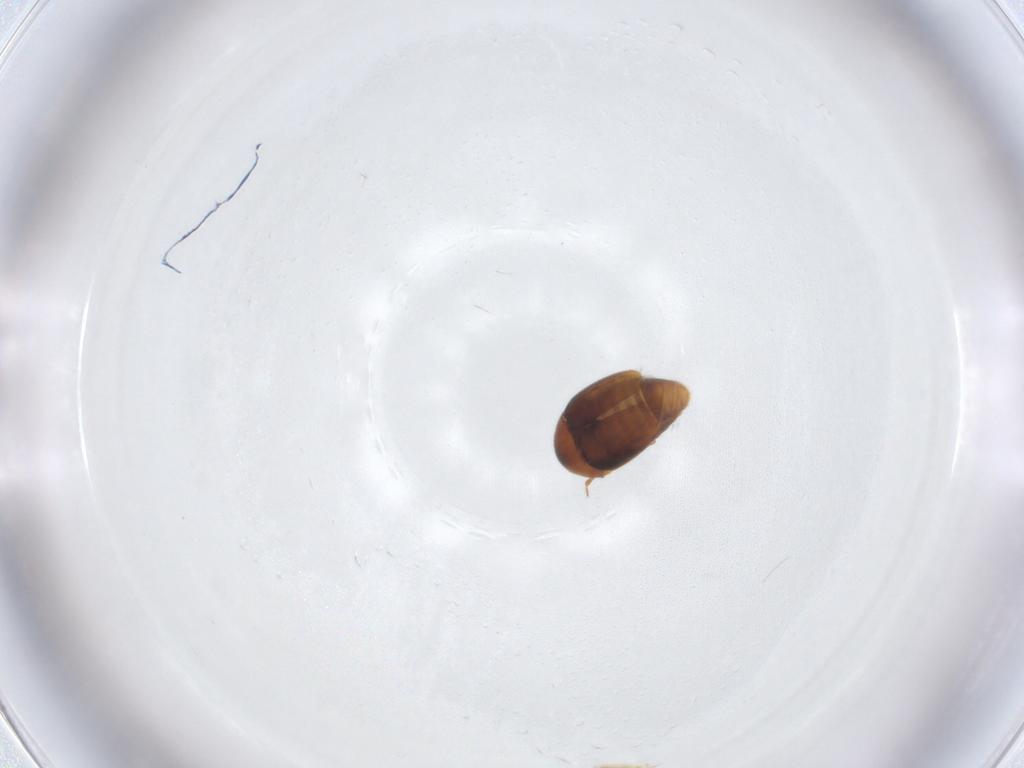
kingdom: Animalia
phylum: Arthropoda
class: Insecta
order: Coleoptera
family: Corylophidae
